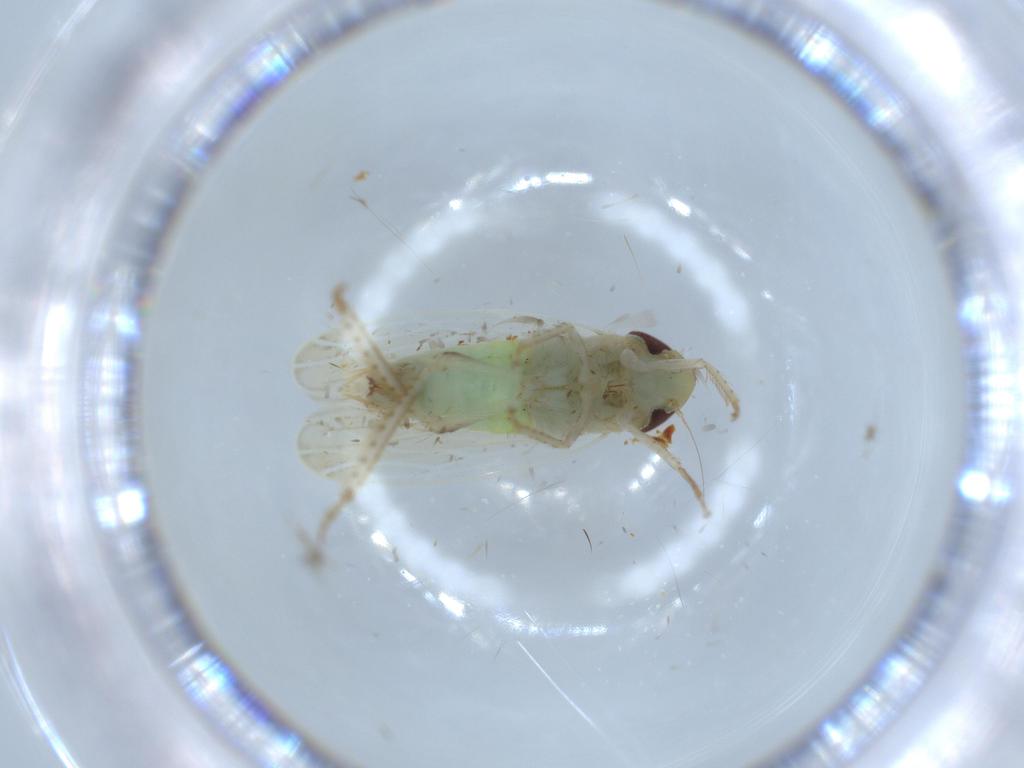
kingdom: Animalia
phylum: Arthropoda
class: Insecta
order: Hemiptera
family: Cicadellidae
